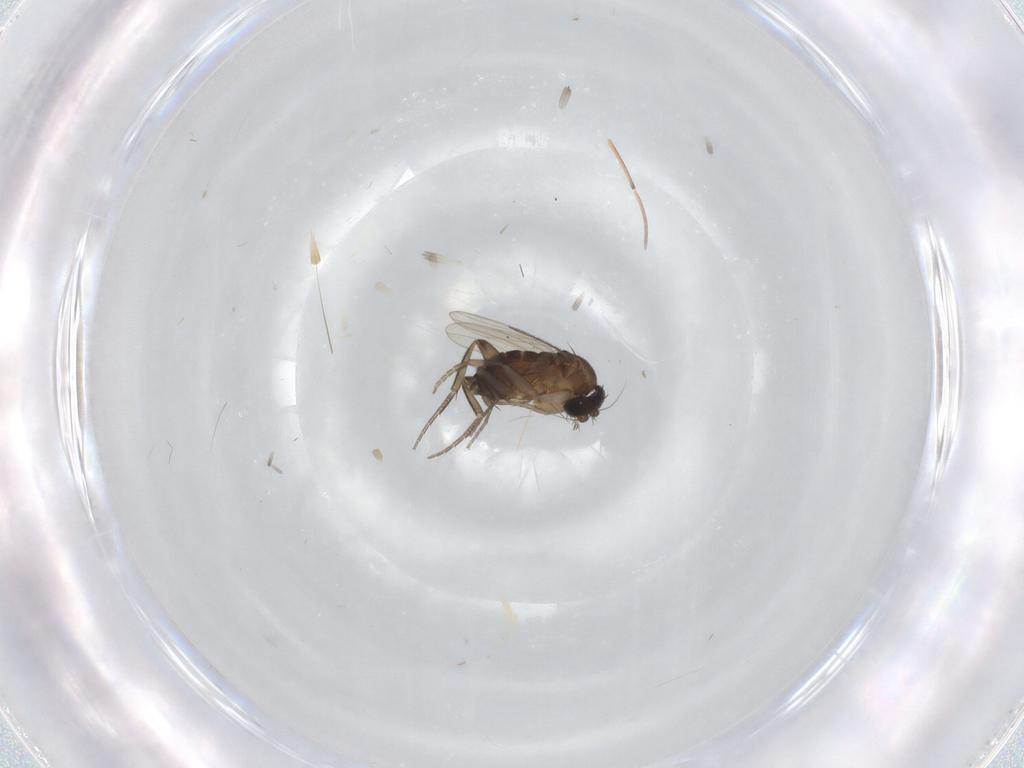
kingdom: Animalia
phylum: Arthropoda
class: Insecta
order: Diptera
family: Phoridae
